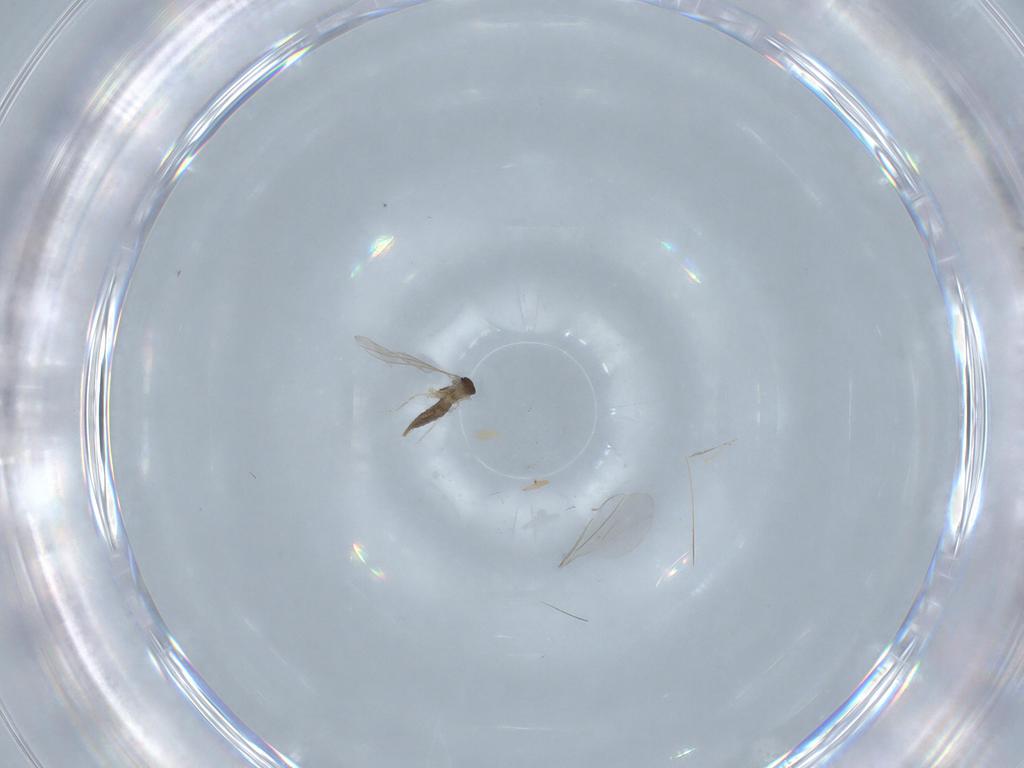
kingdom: Animalia
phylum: Arthropoda
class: Insecta
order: Diptera
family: Cecidomyiidae
